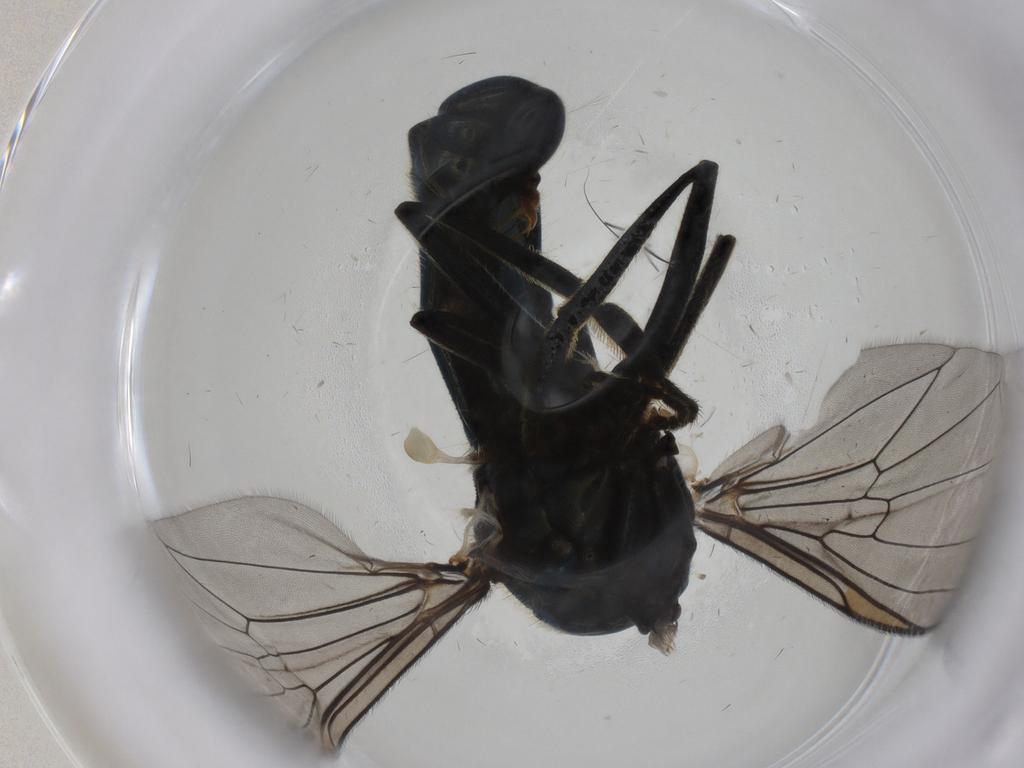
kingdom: Animalia
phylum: Arthropoda
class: Insecta
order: Diptera
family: Syrphidae
